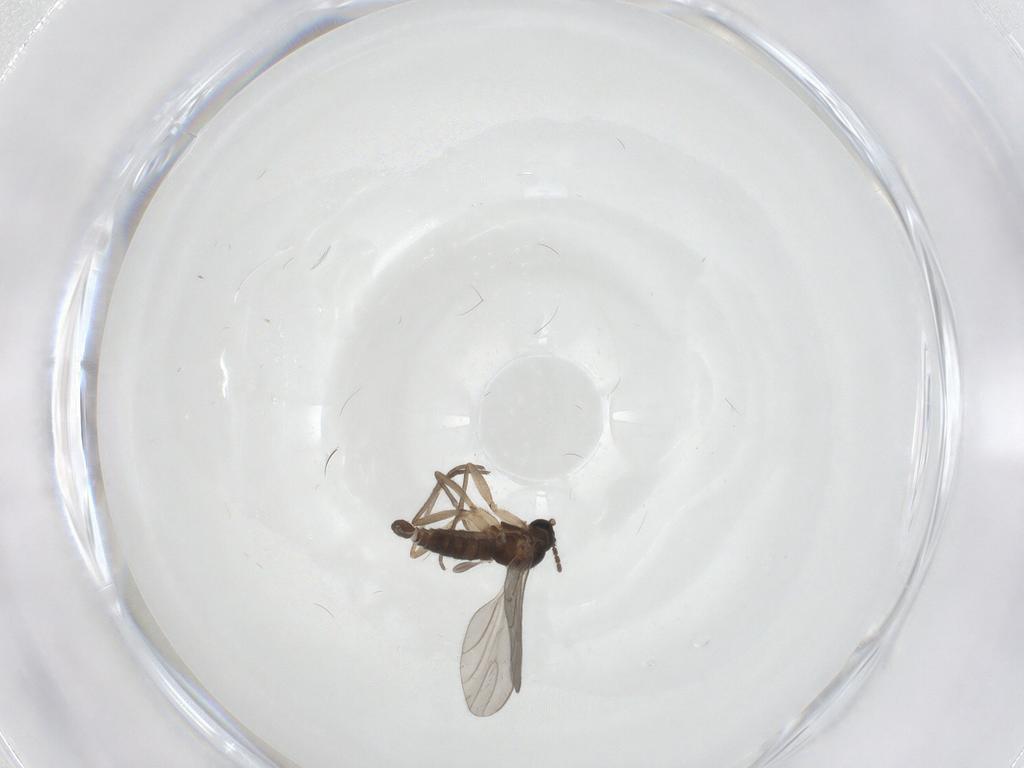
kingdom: Animalia
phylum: Arthropoda
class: Insecta
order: Diptera
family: Sciaridae
